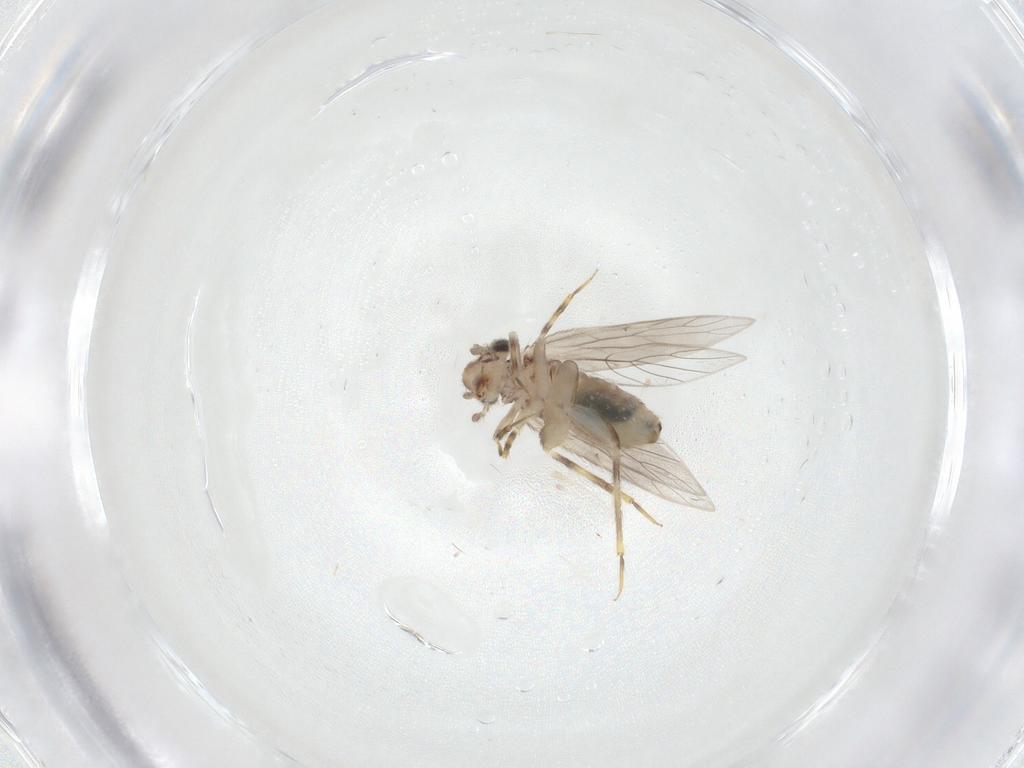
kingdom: Animalia
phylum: Arthropoda
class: Insecta
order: Psocodea
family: Lepidopsocidae
